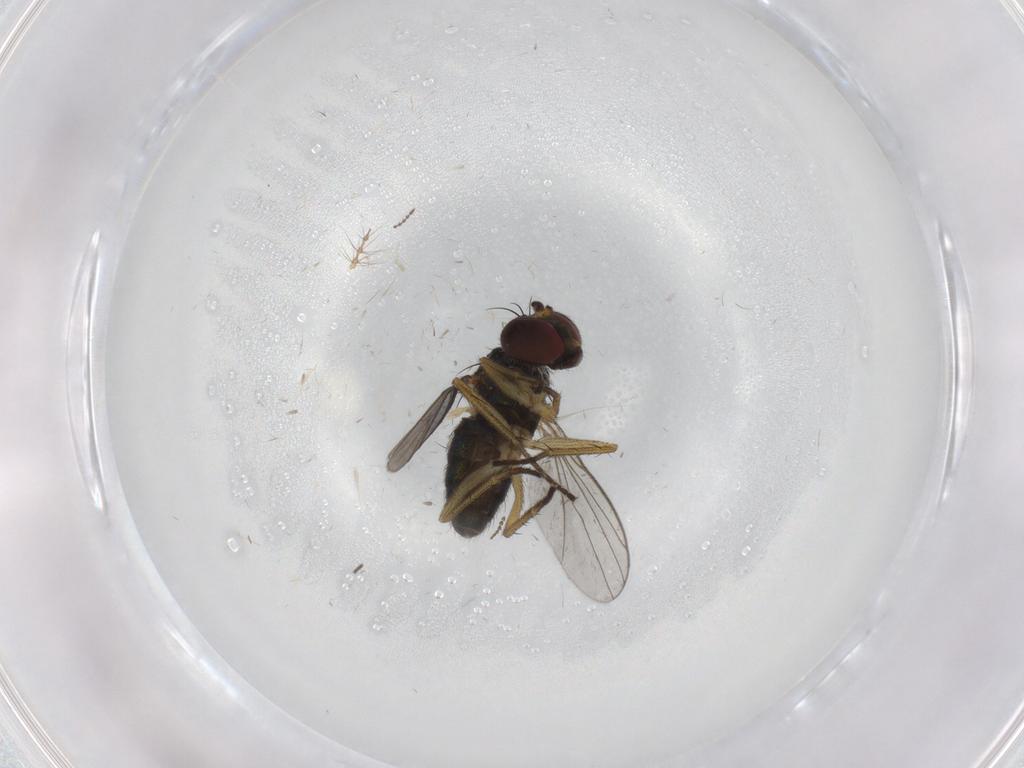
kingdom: Animalia
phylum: Arthropoda
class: Insecta
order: Diptera
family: Dolichopodidae
